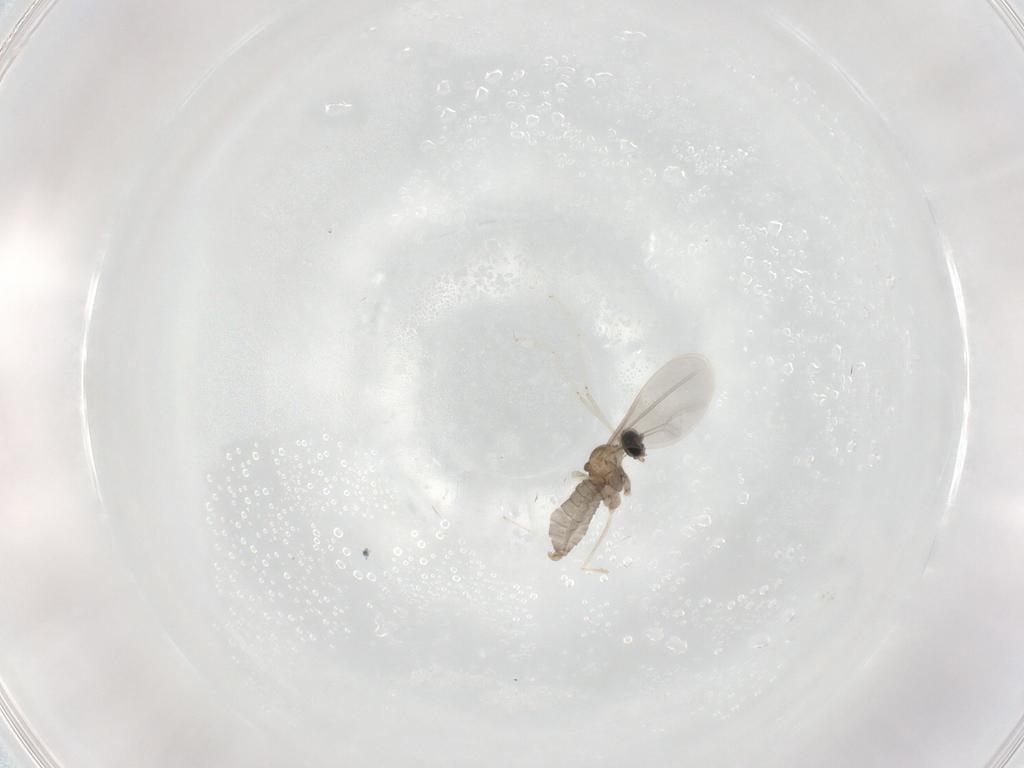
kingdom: Animalia
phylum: Arthropoda
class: Insecta
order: Diptera
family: Cecidomyiidae
